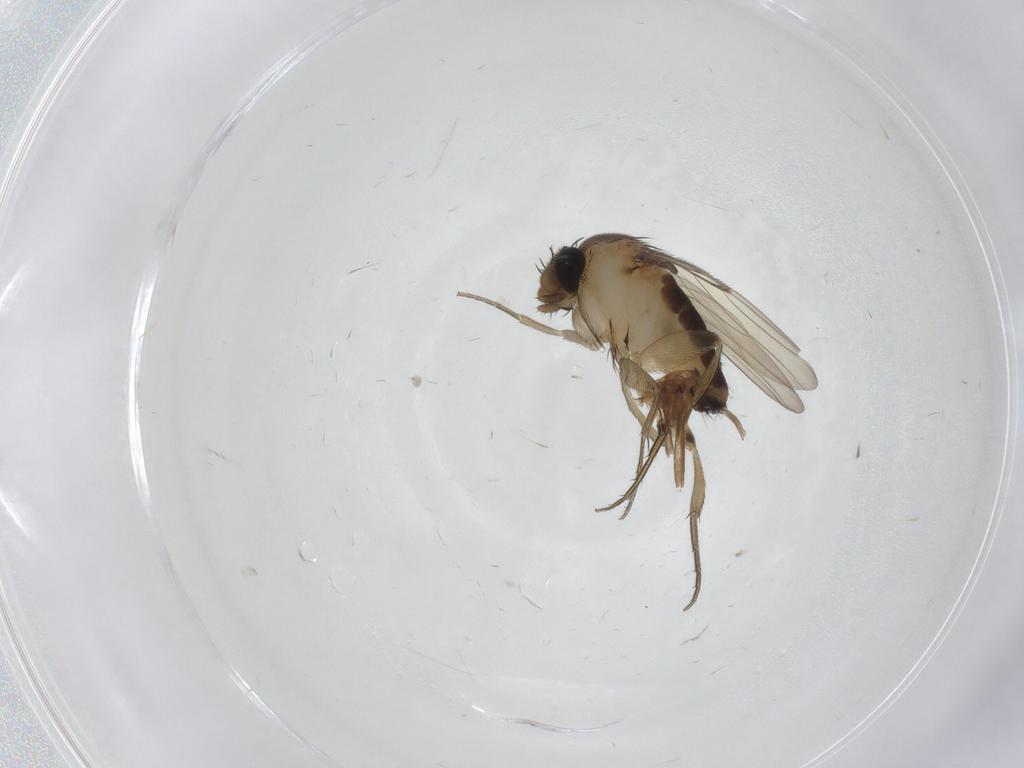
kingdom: Animalia
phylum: Arthropoda
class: Insecta
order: Diptera
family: Phoridae
